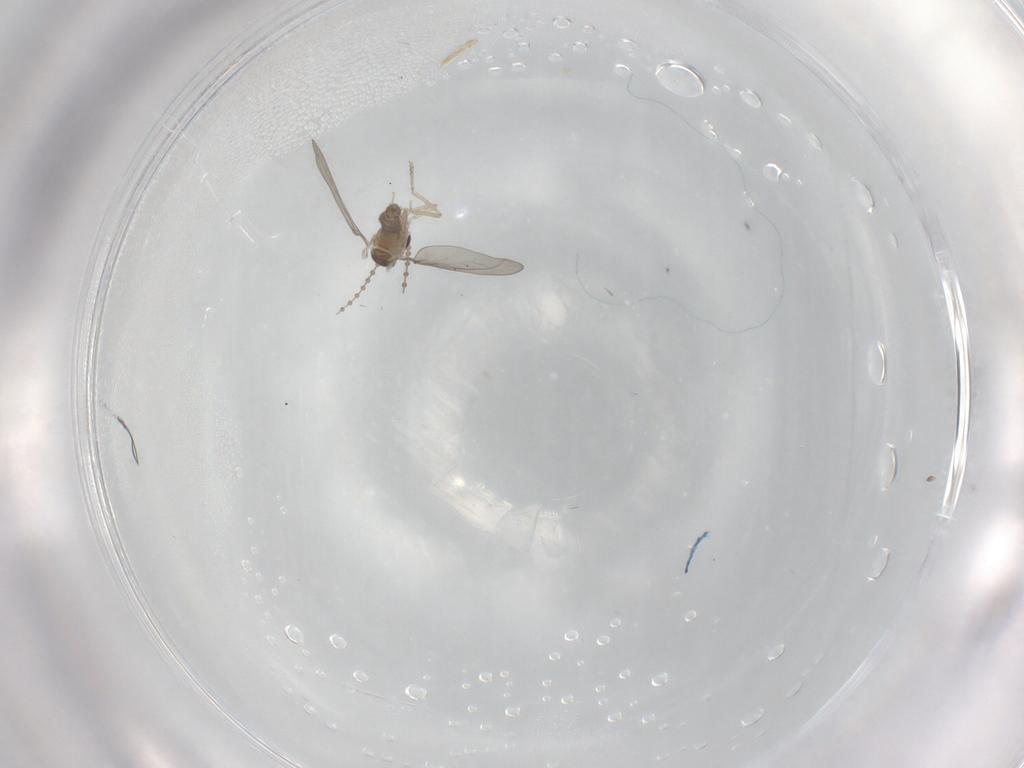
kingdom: Animalia
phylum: Arthropoda
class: Insecta
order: Diptera
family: Cecidomyiidae
